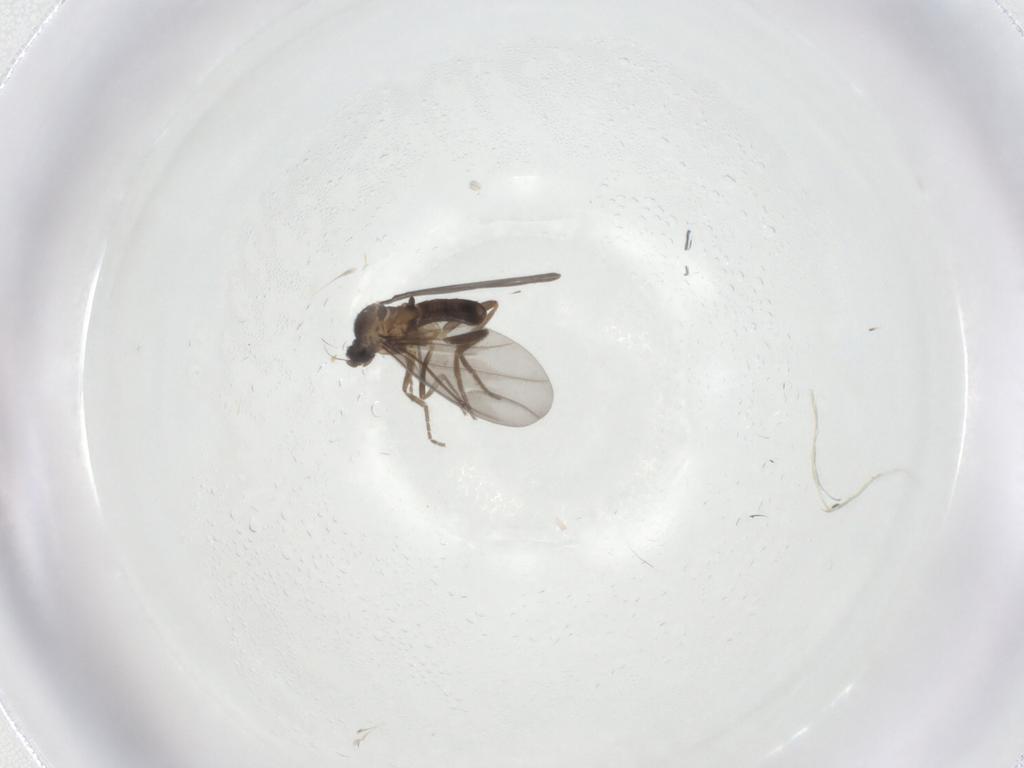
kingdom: Animalia
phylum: Arthropoda
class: Insecta
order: Diptera
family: Phoridae
